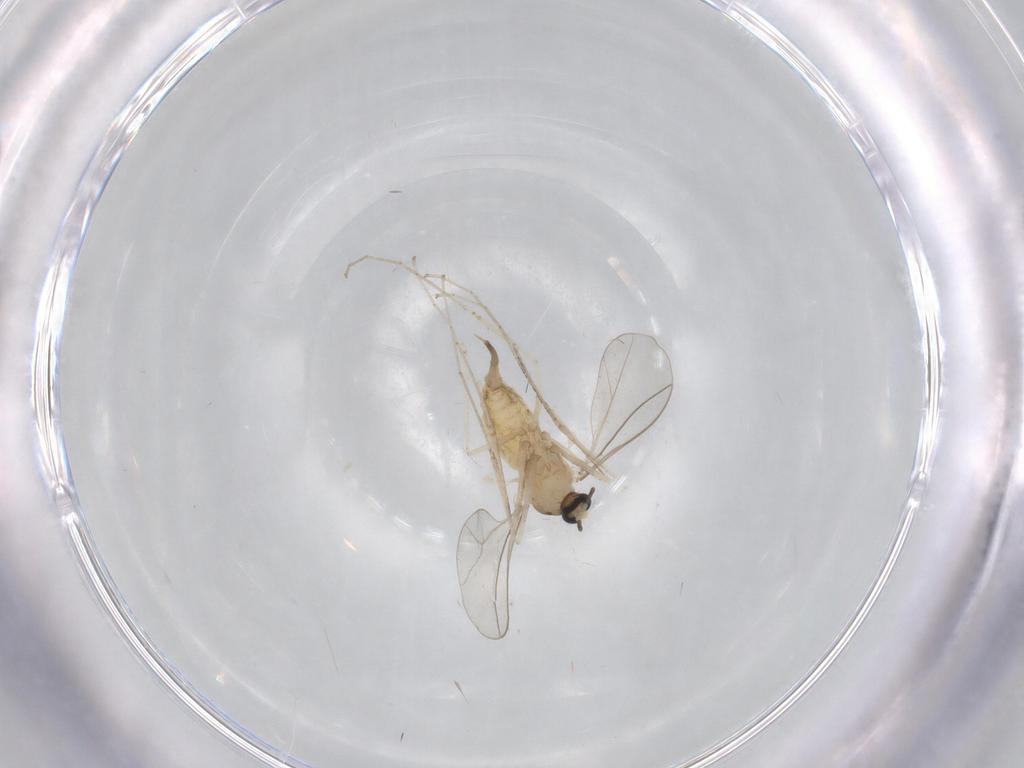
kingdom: Animalia
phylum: Arthropoda
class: Insecta
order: Diptera
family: Cecidomyiidae
